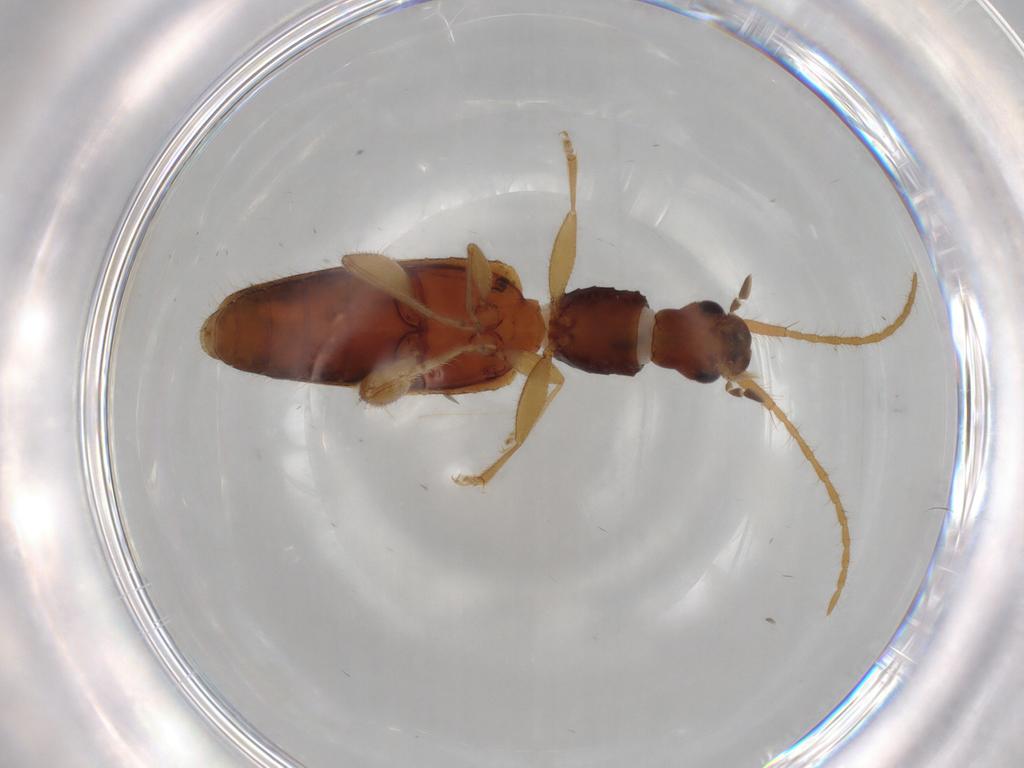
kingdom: Animalia
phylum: Arthropoda
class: Insecta
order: Coleoptera
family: Silvanidae
